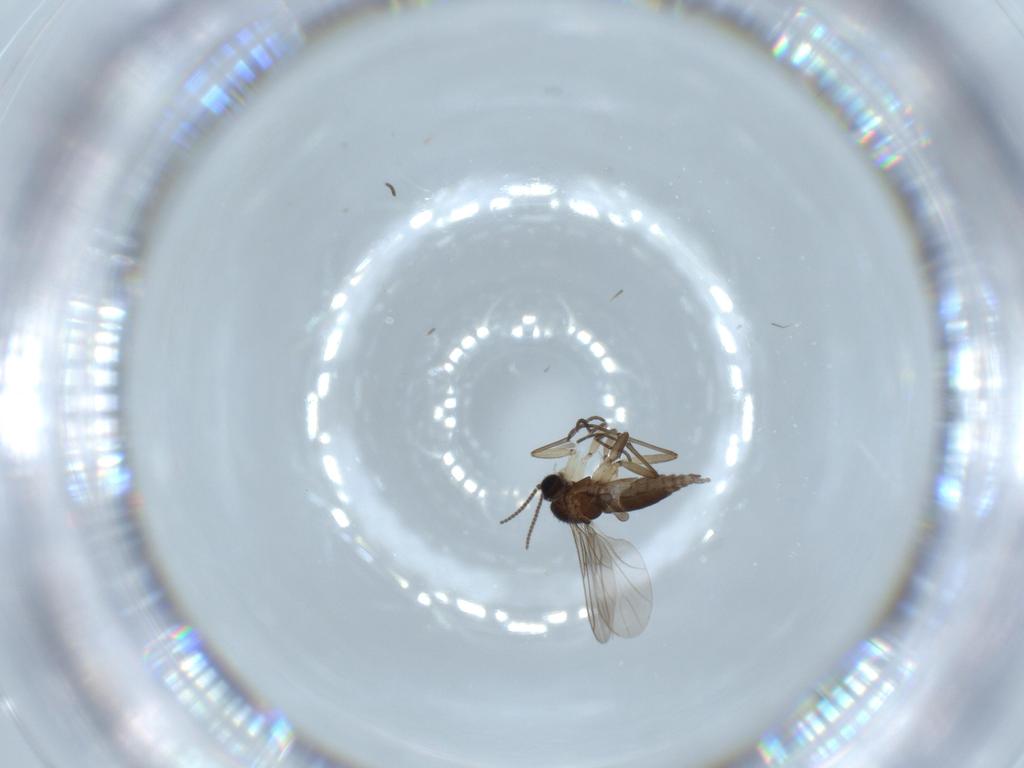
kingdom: Animalia
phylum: Arthropoda
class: Insecta
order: Diptera
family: Sciaridae
